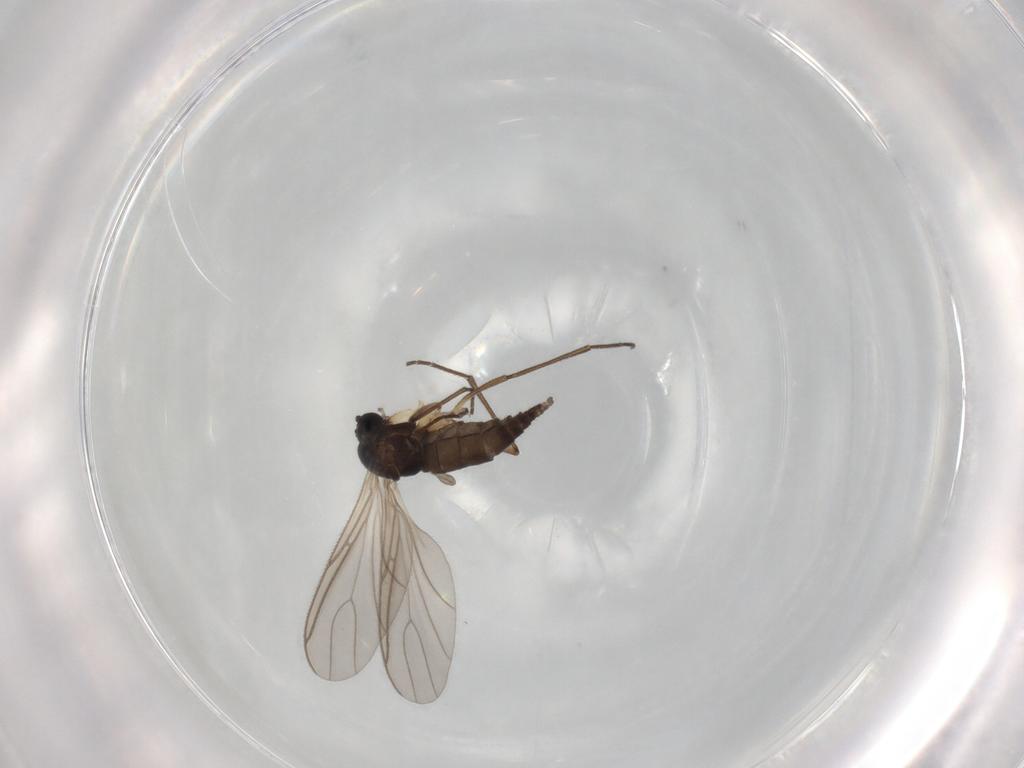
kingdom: Animalia
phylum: Arthropoda
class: Insecta
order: Diptera
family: Sciaridae
